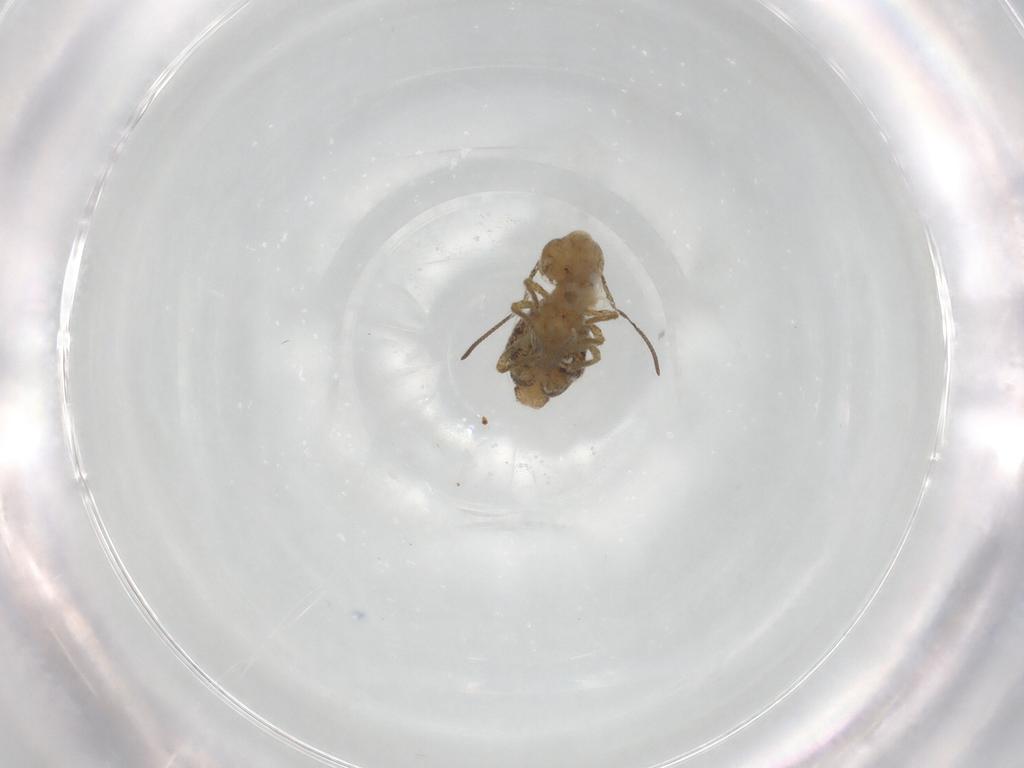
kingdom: Animalia
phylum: Arthropoda
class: Collembola
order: Symphypleona
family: Sminthuridae
